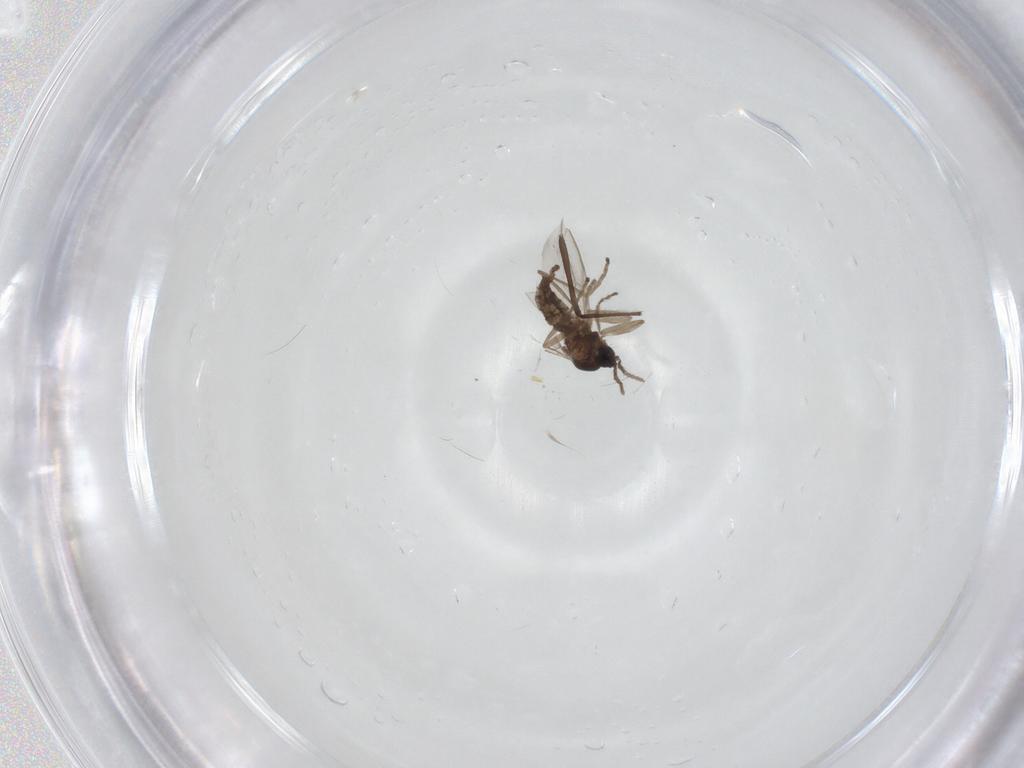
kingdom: Animalia
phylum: Arthropoda
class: Insecta
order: Diptera
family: Cecidomyiidae
